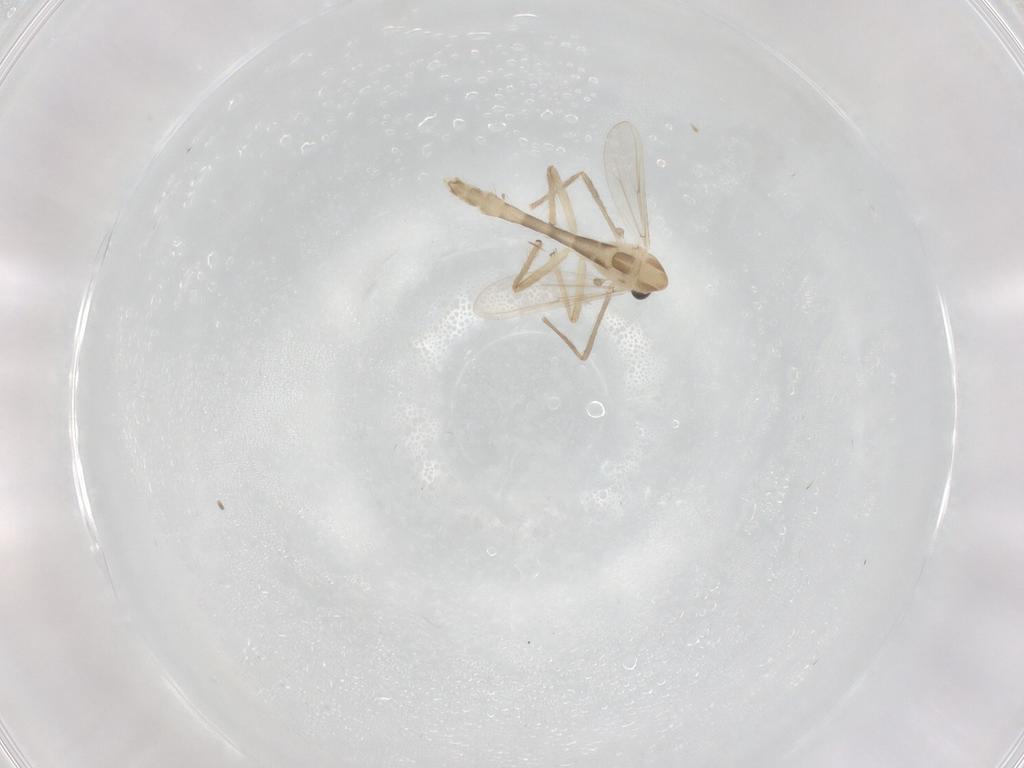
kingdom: Animalia
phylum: Arthropoda
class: Insecta
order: Diptera
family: Chironomidae
